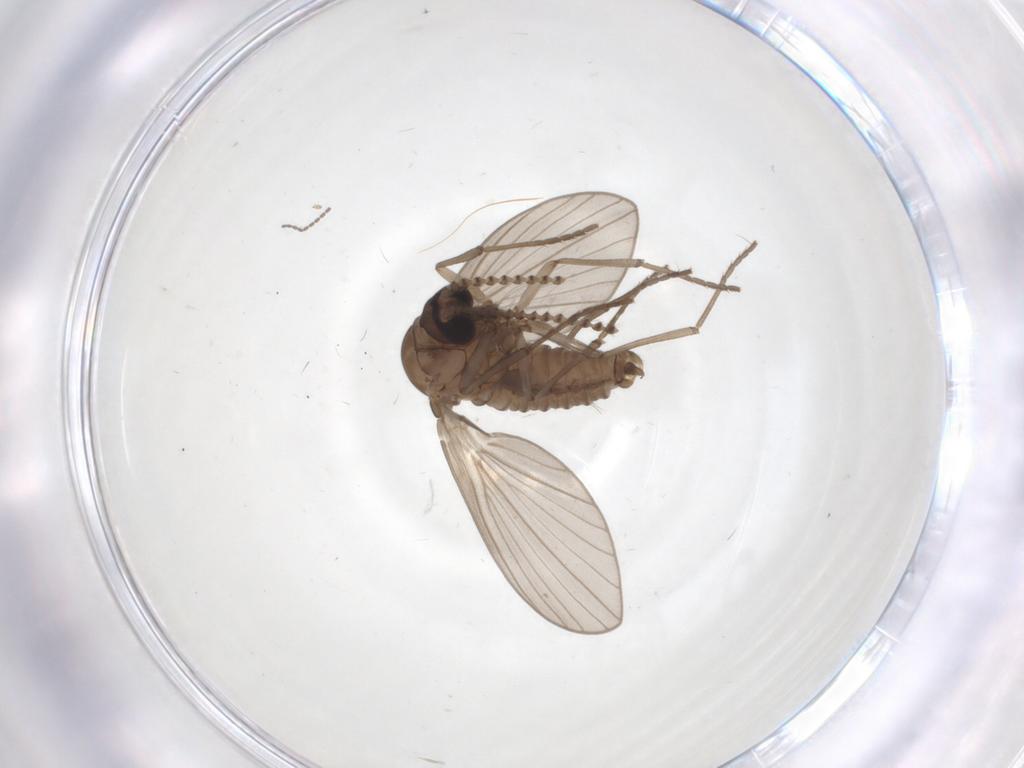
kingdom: Animalia
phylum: Arthropoda
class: Insecta
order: Diptera
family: Psychodidae
